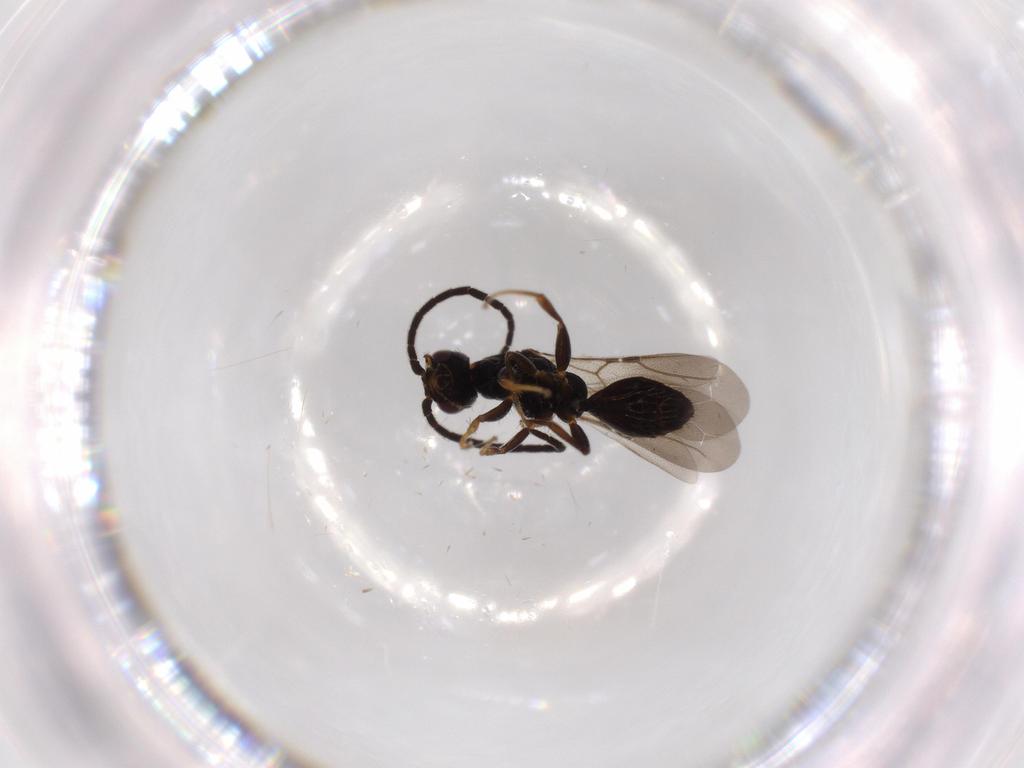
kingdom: Animalia
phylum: Arthropoda
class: Insecta
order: Hymenoptera
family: Bethylidae
